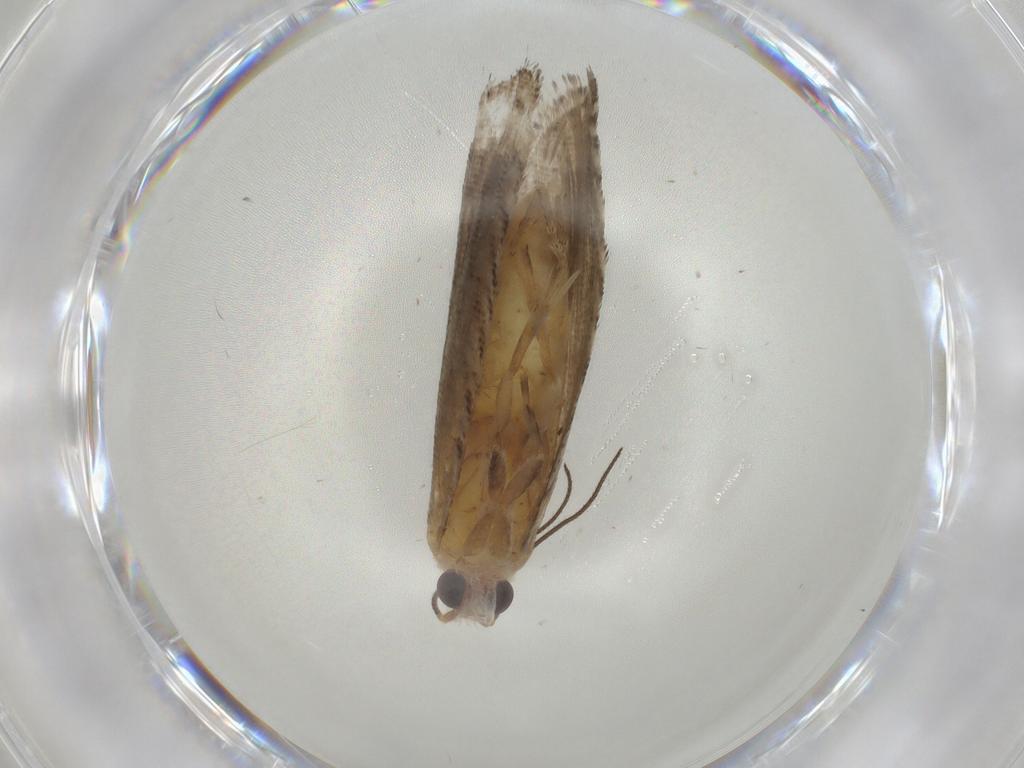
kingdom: Animalia
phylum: Arthropoda
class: Insecta
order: Lepidoptera
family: Tortricidae
